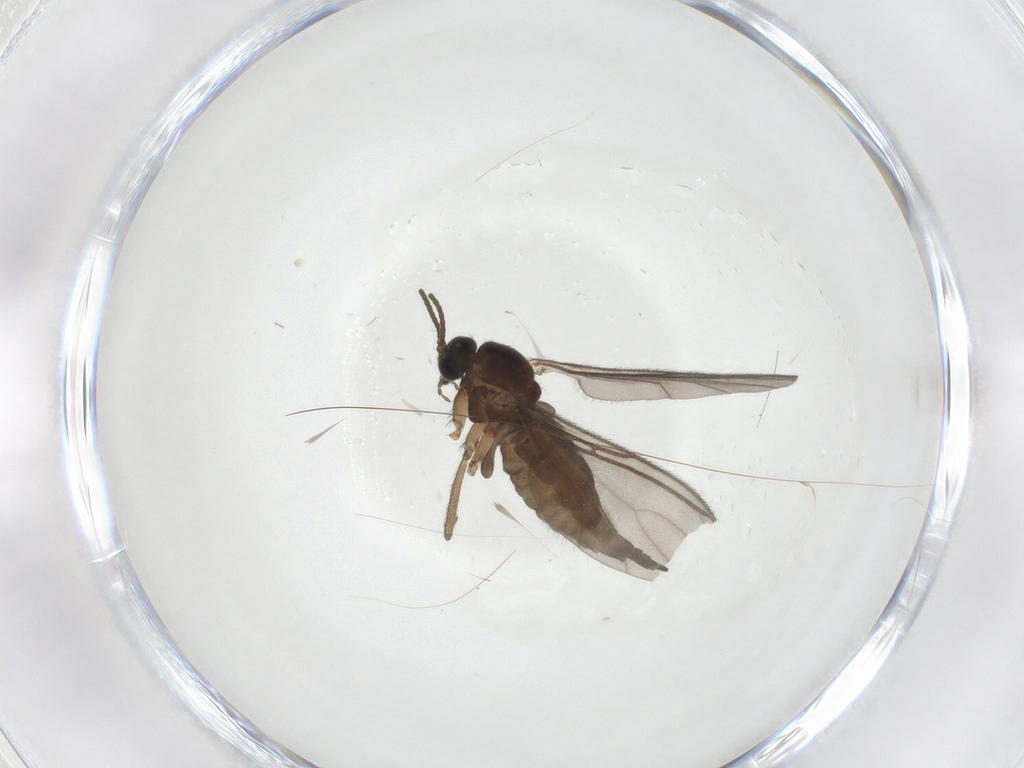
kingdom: Animalia
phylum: Arthropoda
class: Insecta
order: Diptera
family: Sciaridae
